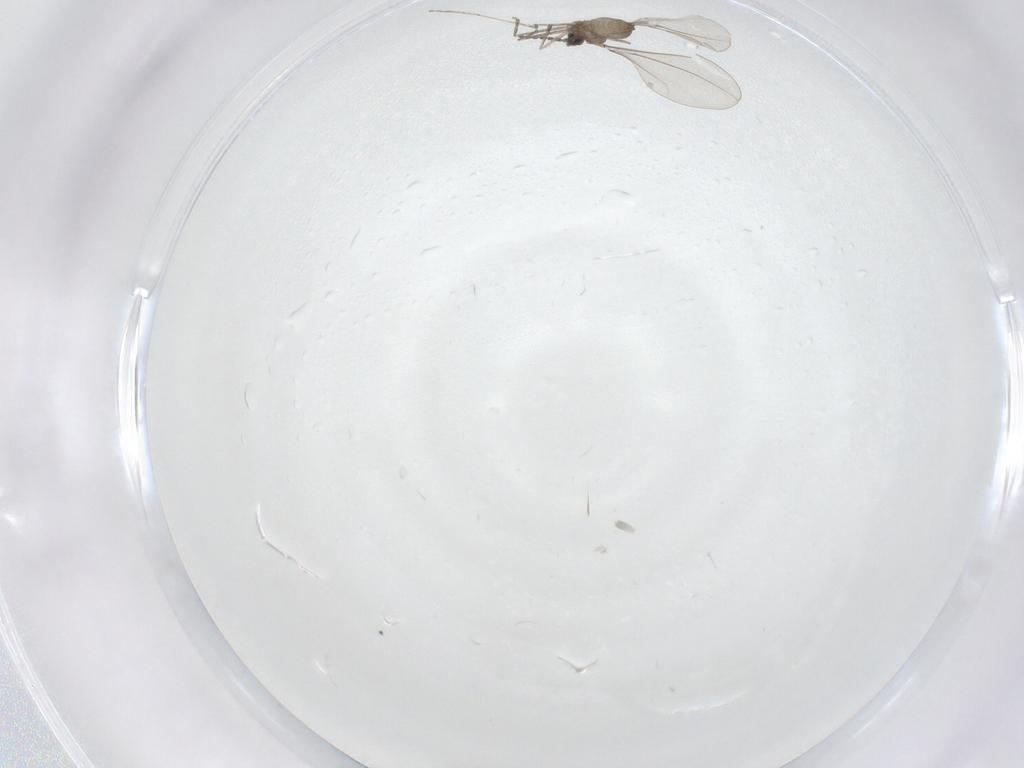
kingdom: Animalia
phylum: Arthropoda
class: Insecta
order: Diptera
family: Cecidomyiidae
